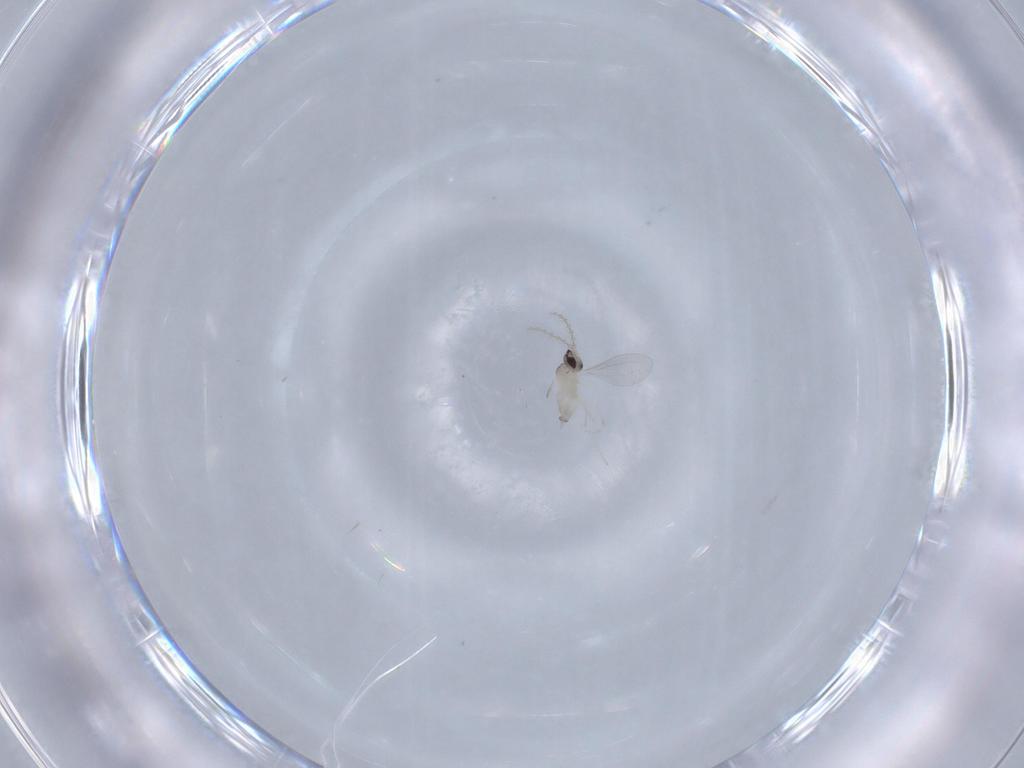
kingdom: Animalia
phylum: Arthropoda
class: Insecta
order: Diptera
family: Cecidomyiidae
